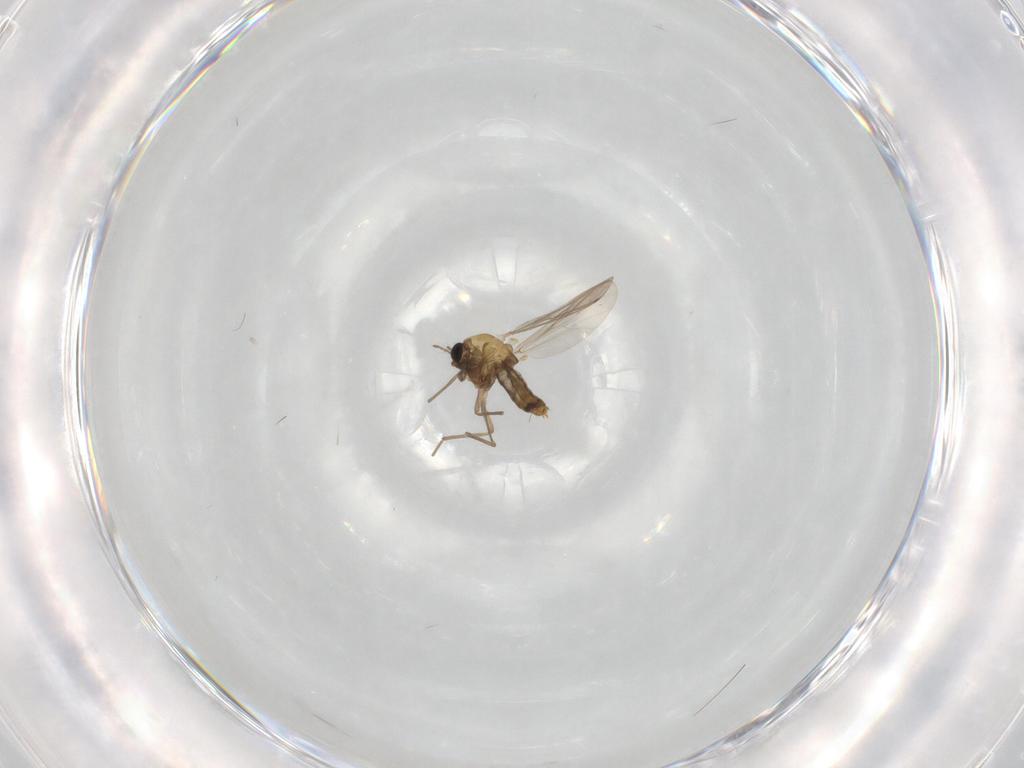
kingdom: Animalia
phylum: Arthropoda
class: Insecta
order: Diptera
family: Chironomidae
